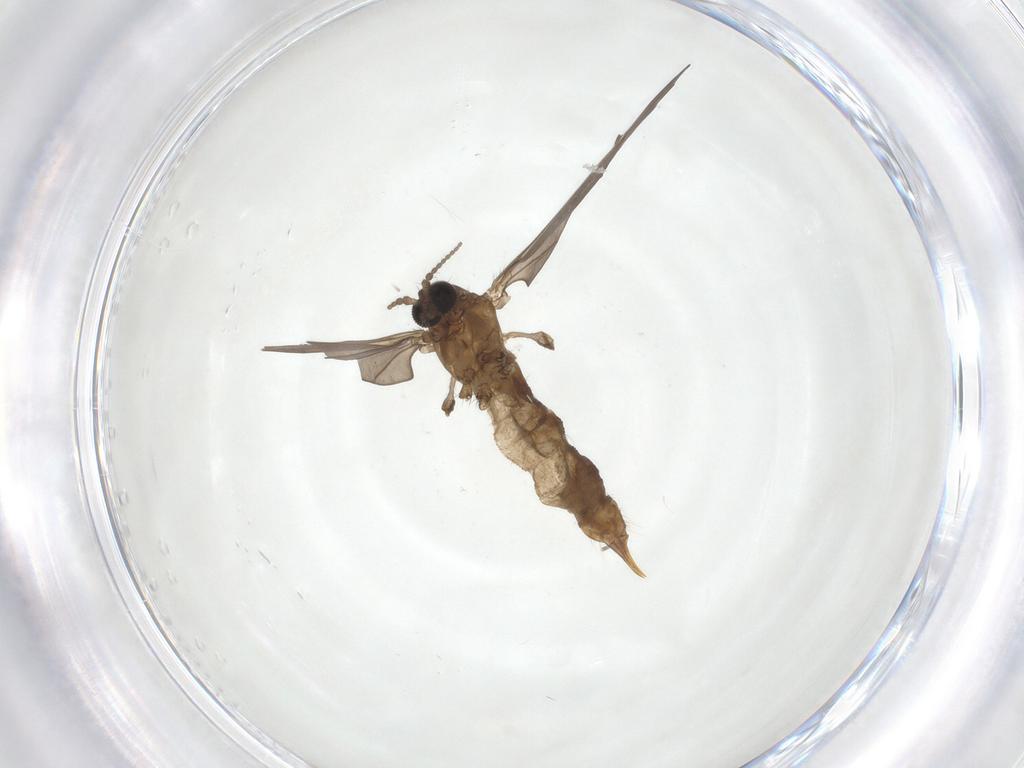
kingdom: Animalia
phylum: Arthropoda
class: Insecta
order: Diptera
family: Limoniidae
